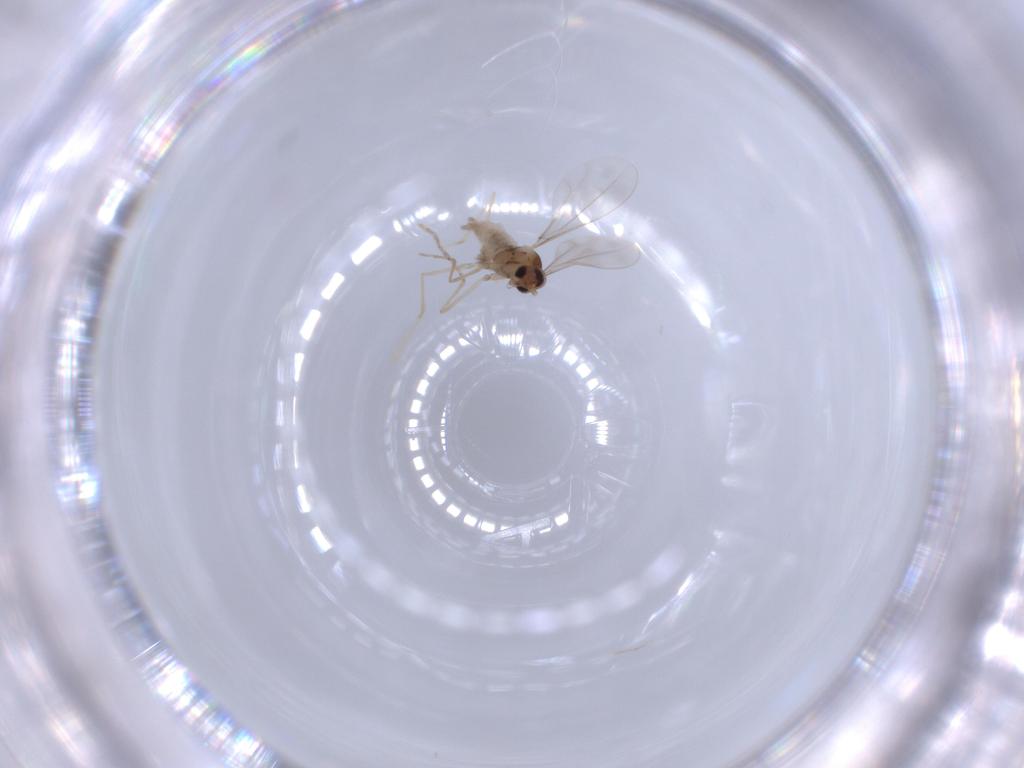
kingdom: Animalia
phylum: Arthropoda
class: Insecta
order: Diptera
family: Cecidomyiidae
